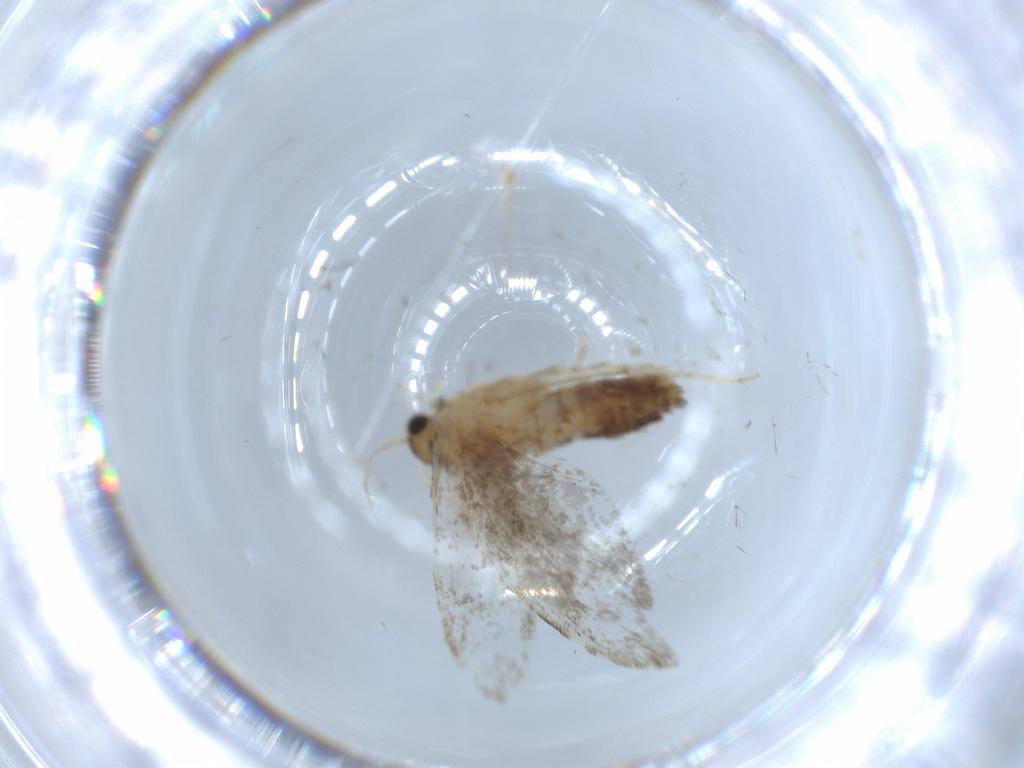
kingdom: Animalia
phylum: Arthropoda
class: Insecta
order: Lepidoptera
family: Tineidae
